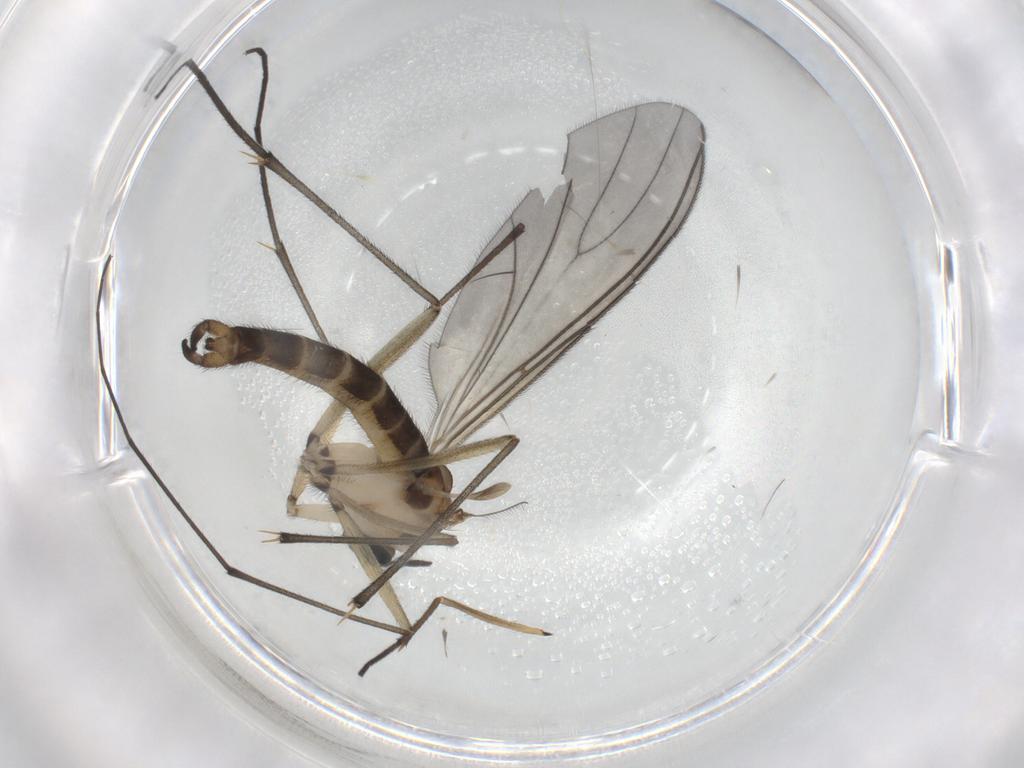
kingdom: Animalia
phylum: Arthropoda
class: Insecta
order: Diptera
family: Sciaridae
